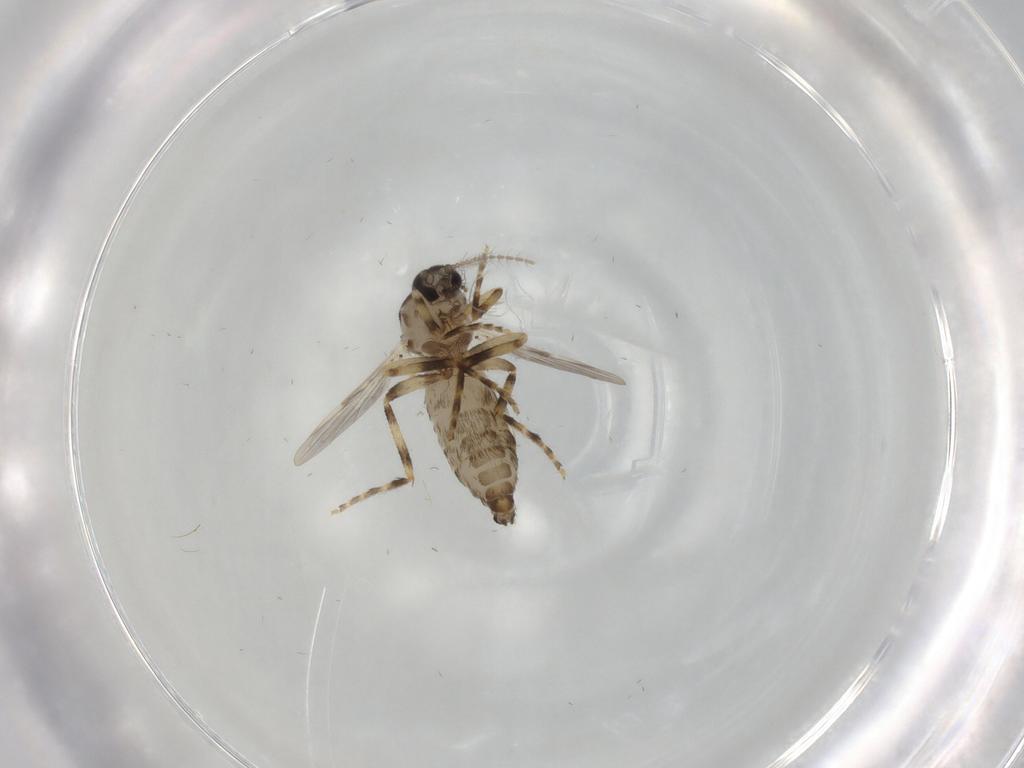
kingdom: Animalia
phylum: Arthropoda
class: Insecta
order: Diptera
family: Ceratopogonidae
